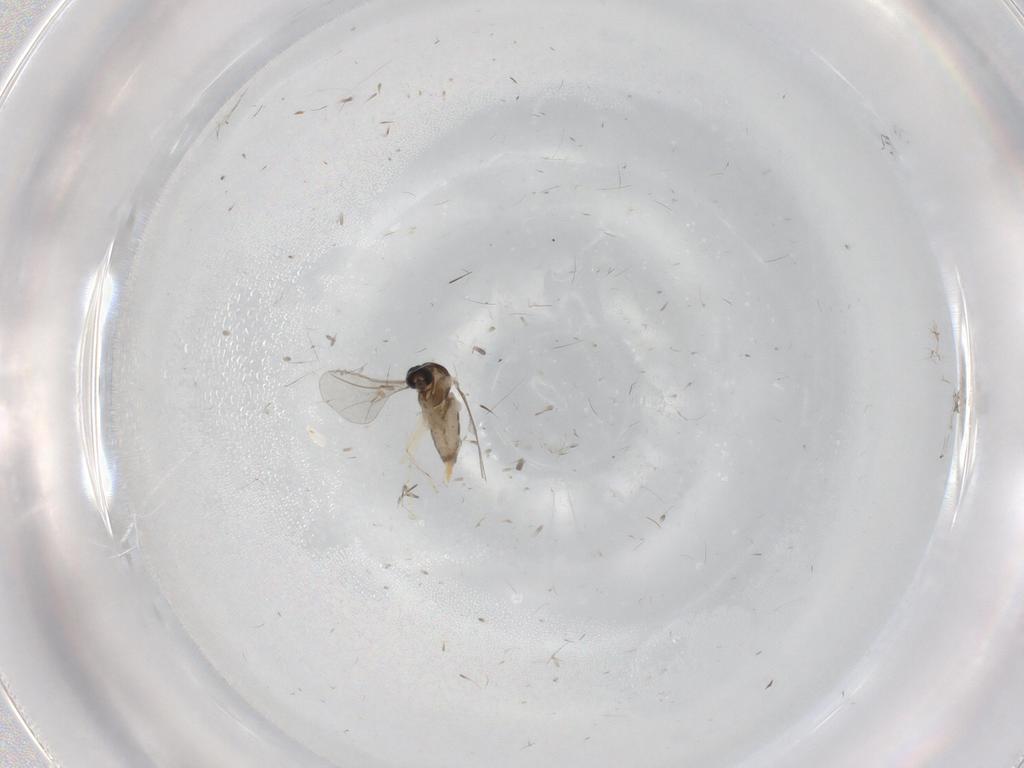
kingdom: Animalia
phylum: Arthropoda
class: Insecta
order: Diptera
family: Cecidomyiidae
